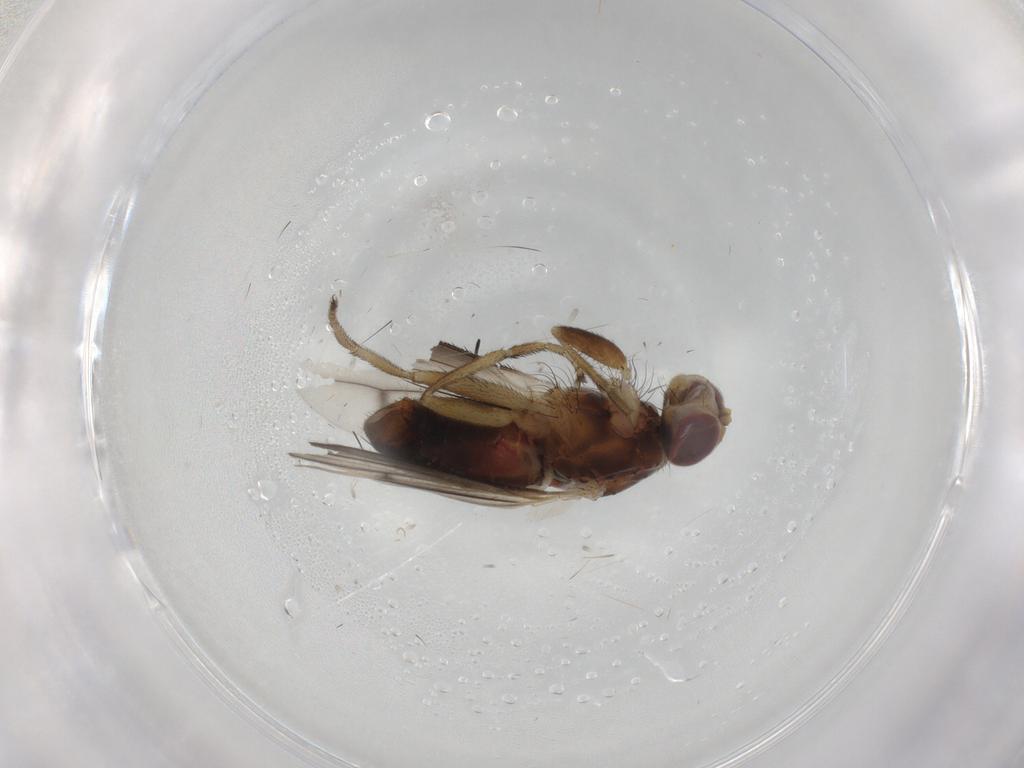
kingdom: Animalia
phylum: Arthropoda
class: Insecta
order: Diptera
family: Heleomyzidae
